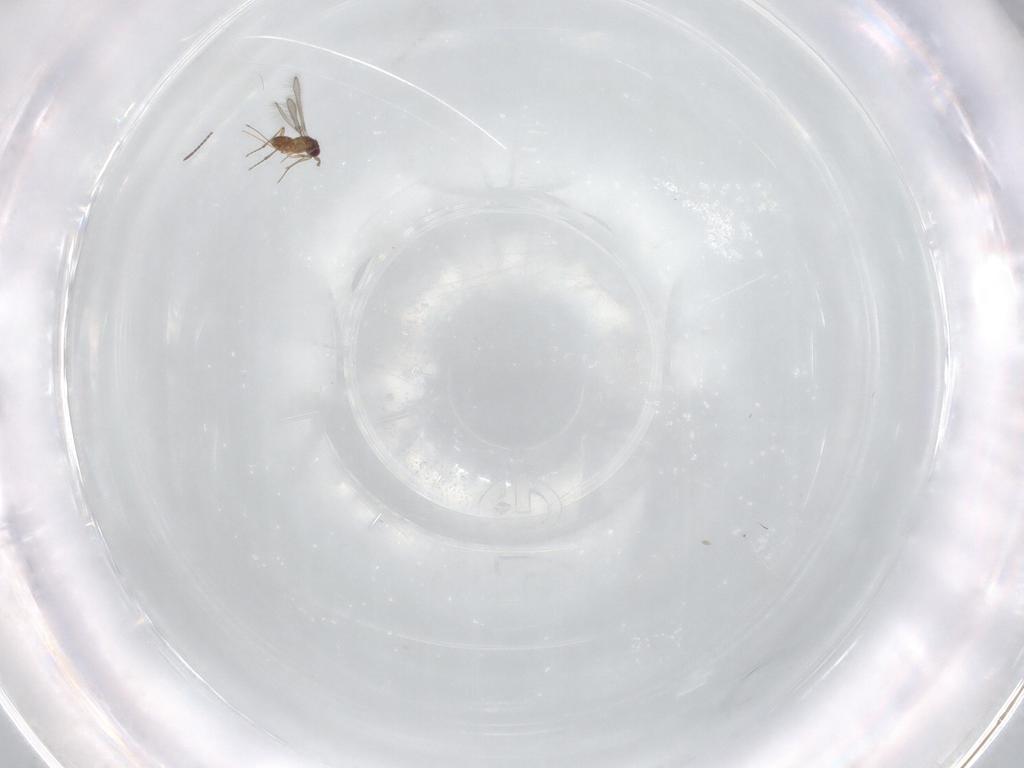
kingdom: Animalia
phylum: Arthropoda
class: Insecta
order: Hymenoptera
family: Mymaridae
